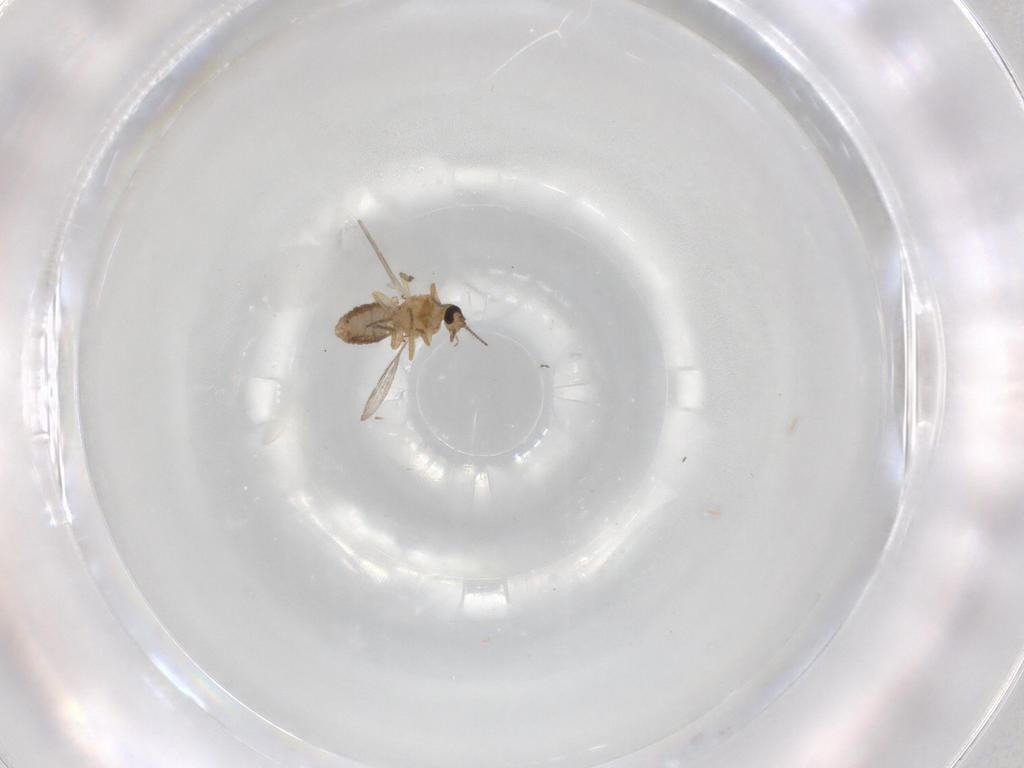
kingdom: Animalia
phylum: Arthropoda
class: Insecta
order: Diptera
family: Ceratopogonidae
